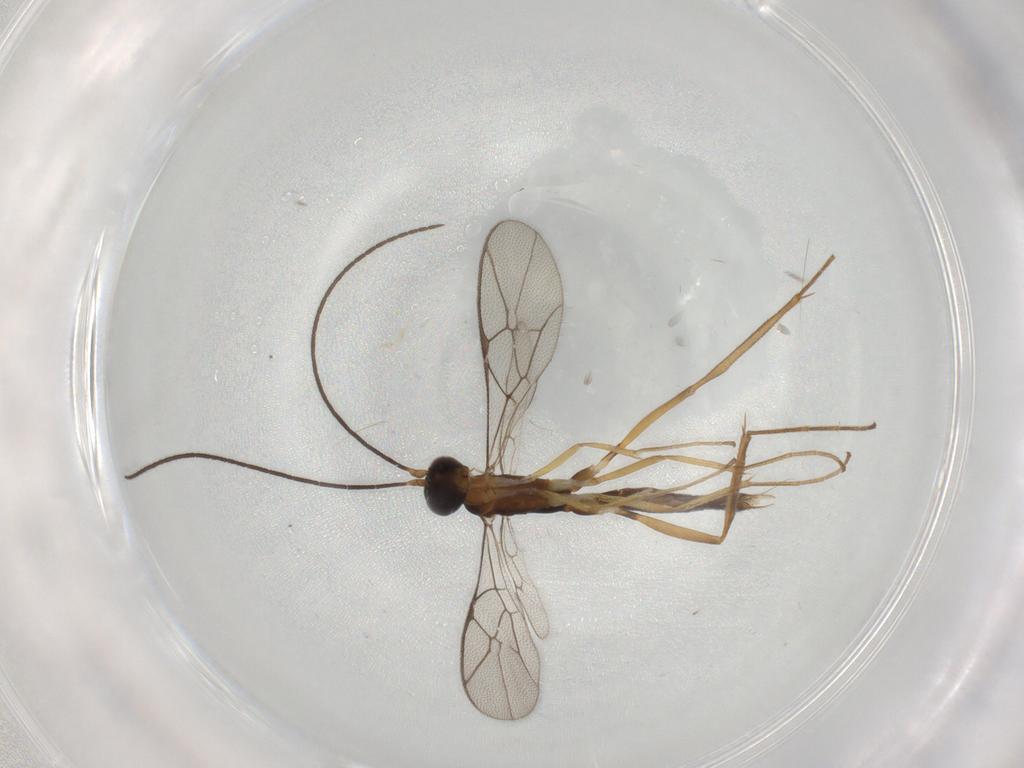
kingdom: Animalia
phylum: Arthropoda
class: Insecta
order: Hymenoptera
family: Ichneumonidae
